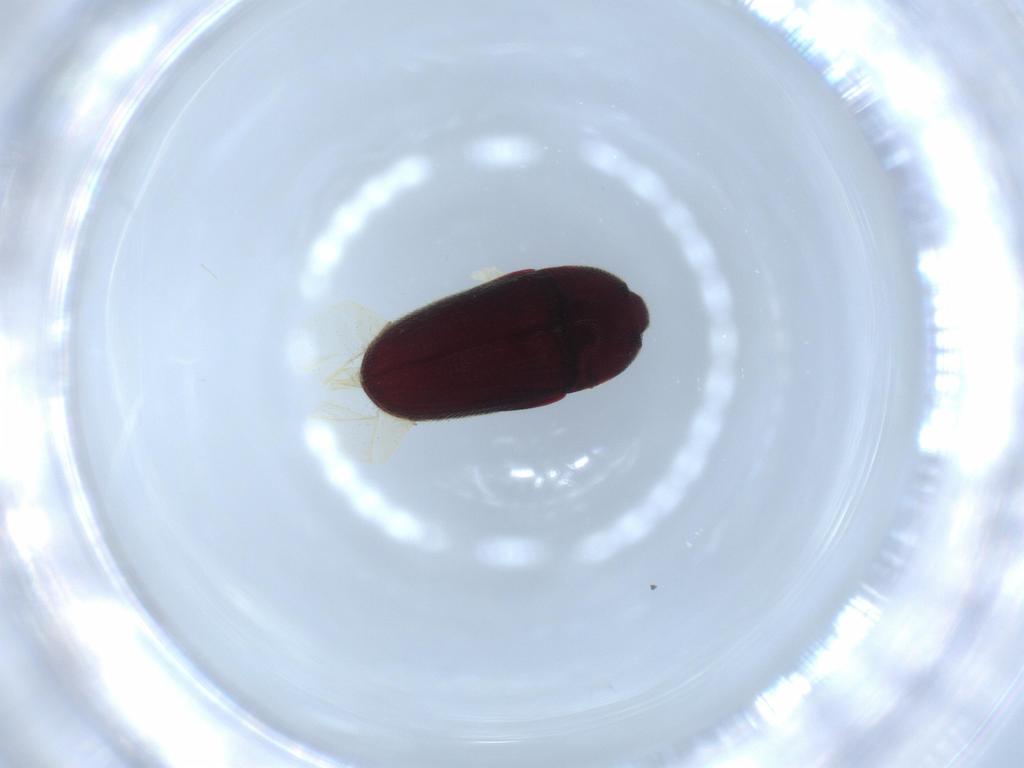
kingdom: Animalia
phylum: Arthropoda
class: Insecta
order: Coleoptera
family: Throscidae
